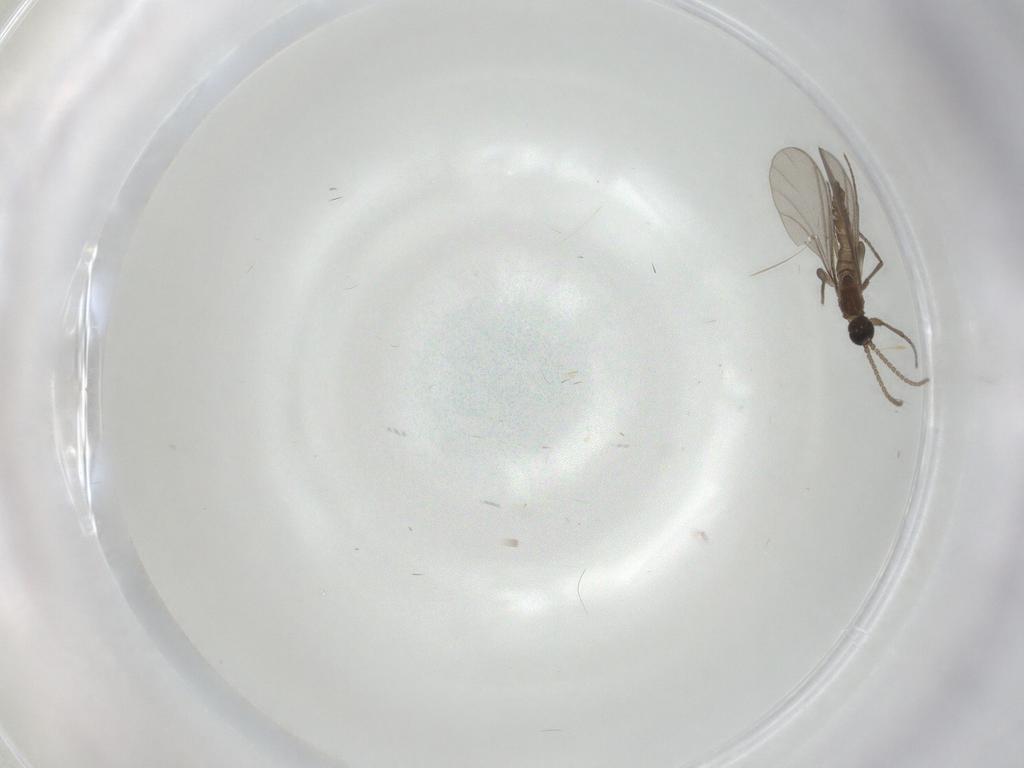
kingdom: Animalia
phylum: Arthropoda
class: Insecta
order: Diptera
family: Sciaridae
